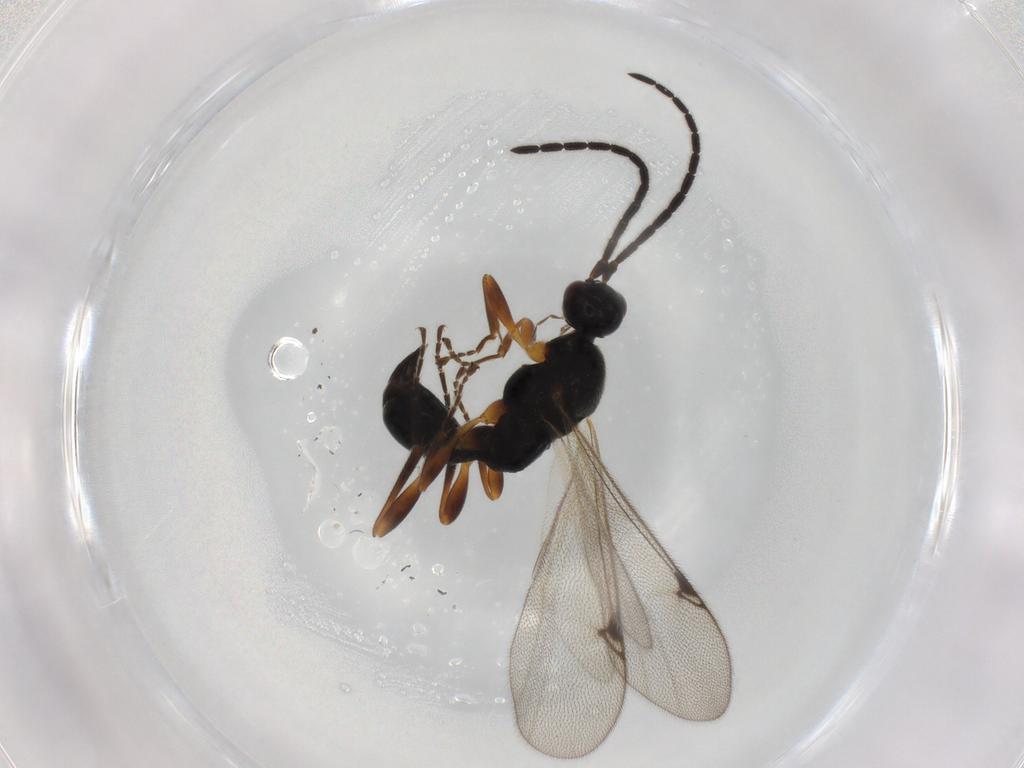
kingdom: Animalia
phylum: Arthropoda
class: Insecta
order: Hymenoptera
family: Proctotrupidae
